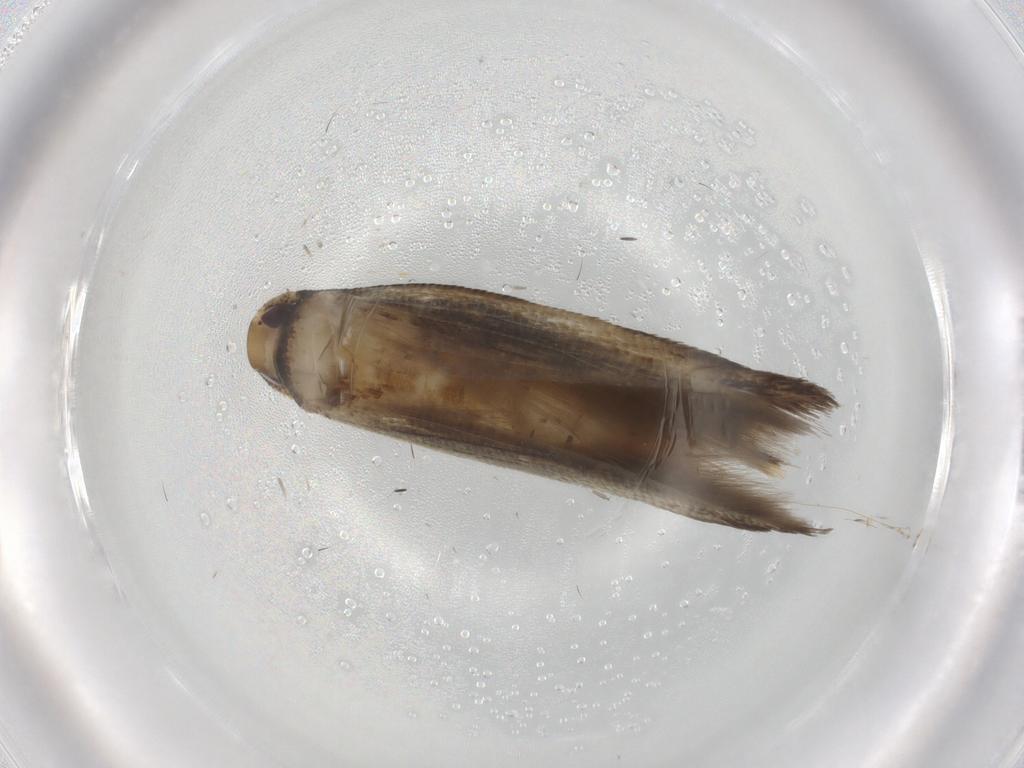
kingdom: Animalia
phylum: Arthropoda
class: Insecta
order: Lepidoptera
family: Cosmopterigidae
